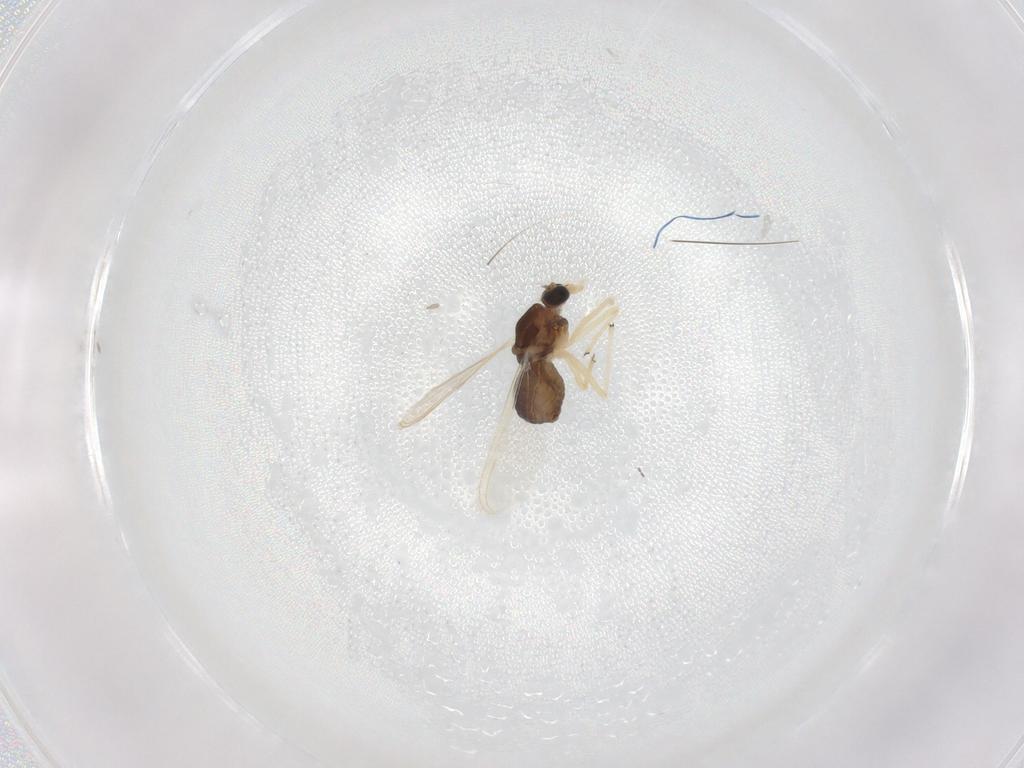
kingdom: Animalia
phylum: Arthropoda
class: Insecta
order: Diptera
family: Chironomidae
